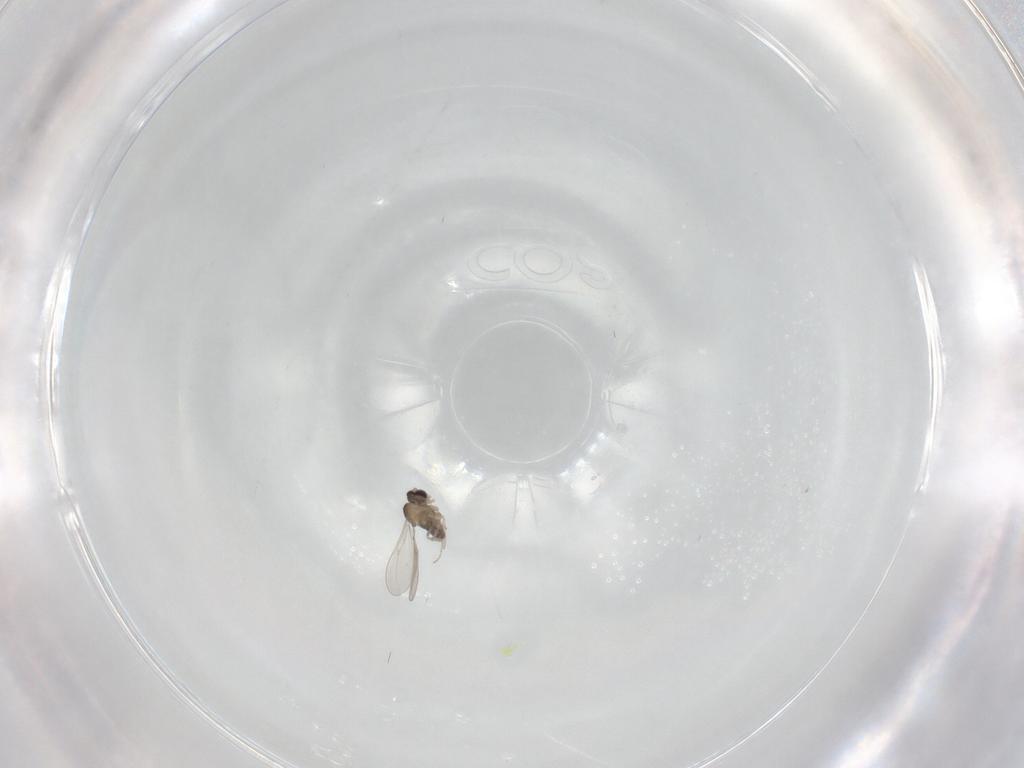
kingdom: Animalia
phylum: Arthropoda
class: Insecta
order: Diptera
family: Chironomidae
